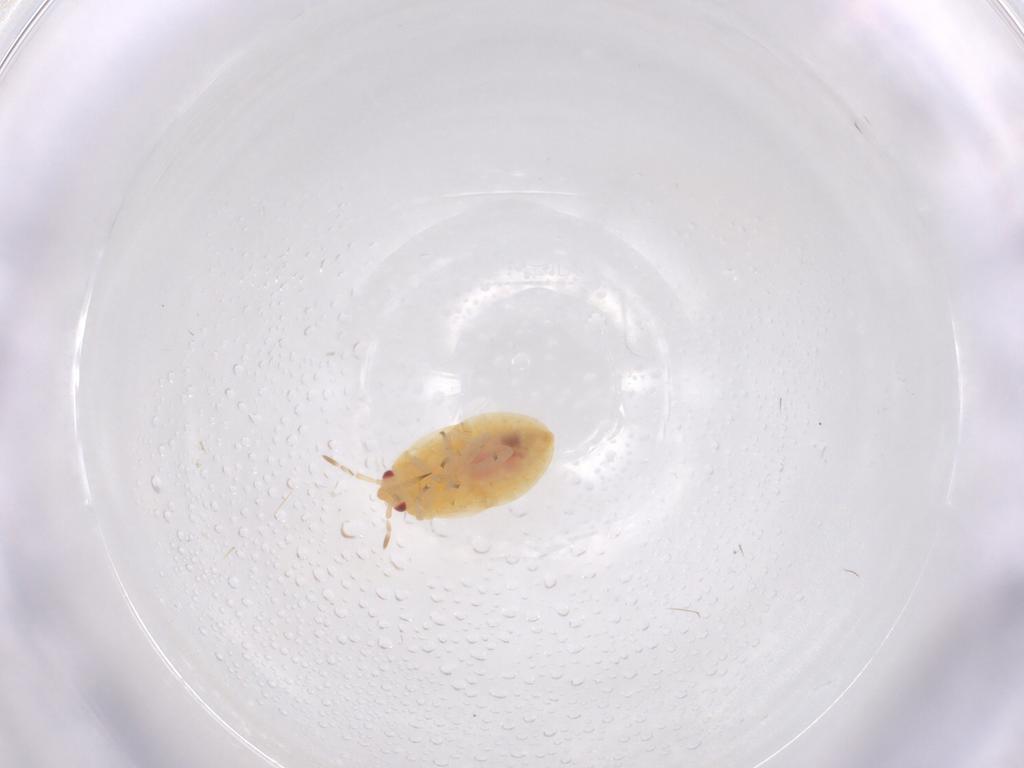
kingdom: Animalia
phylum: Arthropoda
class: Insecta
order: Hemiptera
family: Anthocoridae
